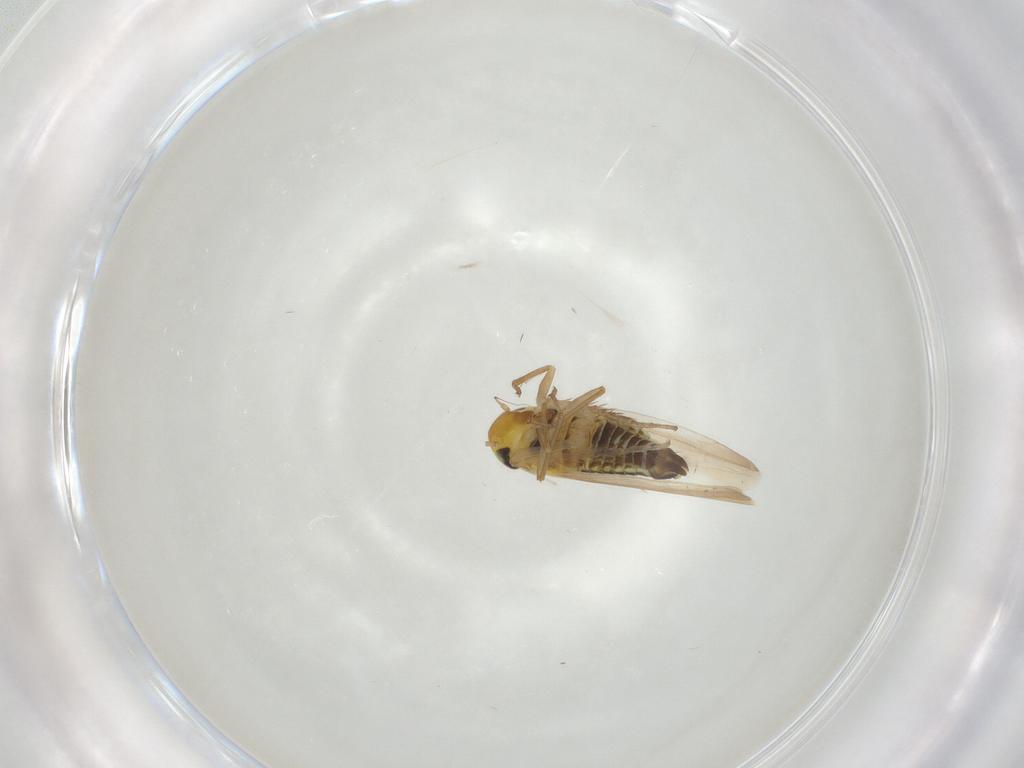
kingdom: Animalia
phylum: Arthropoda
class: Insecta
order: Hemiptera
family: Cicadellidae
